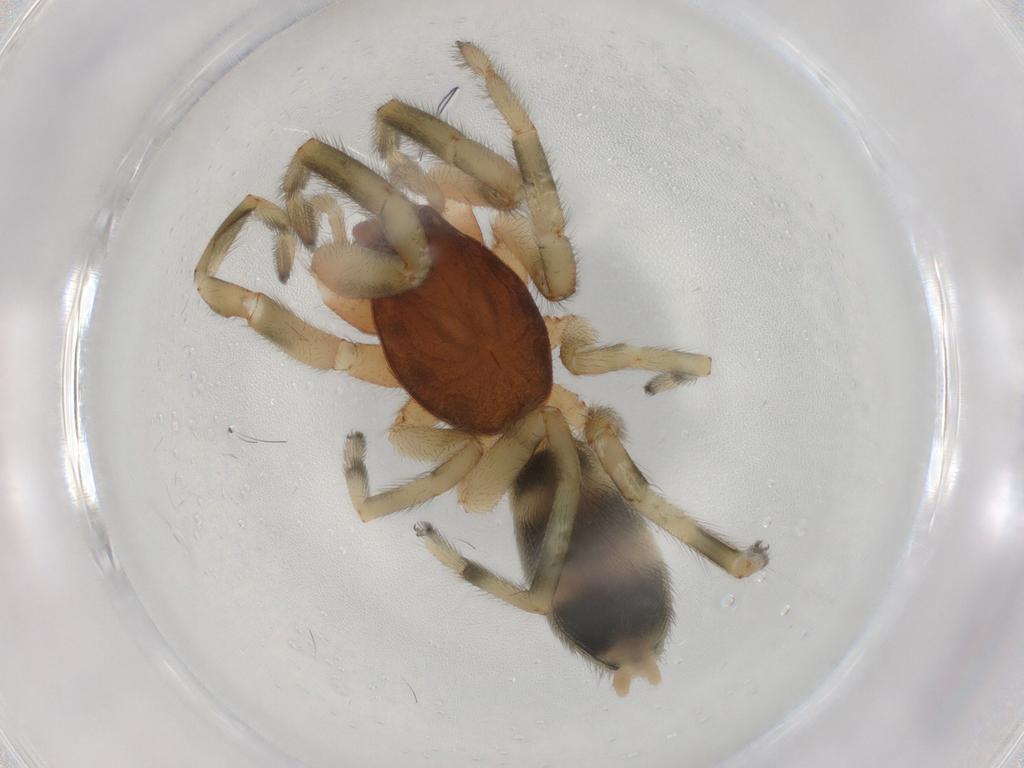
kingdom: Animalia
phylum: Arthropoda
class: Arachnida
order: Araneae
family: Lamponidae
